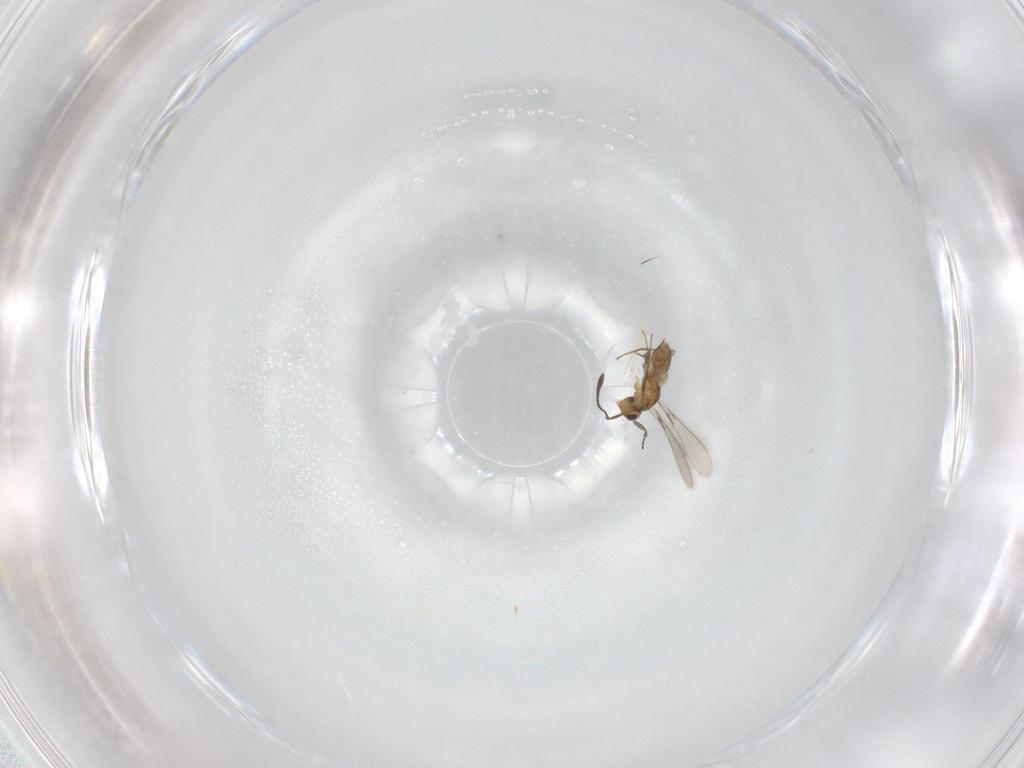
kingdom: Animalia
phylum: Arthropoda
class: Insecta
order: Hymenoptera
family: Mymaridae
